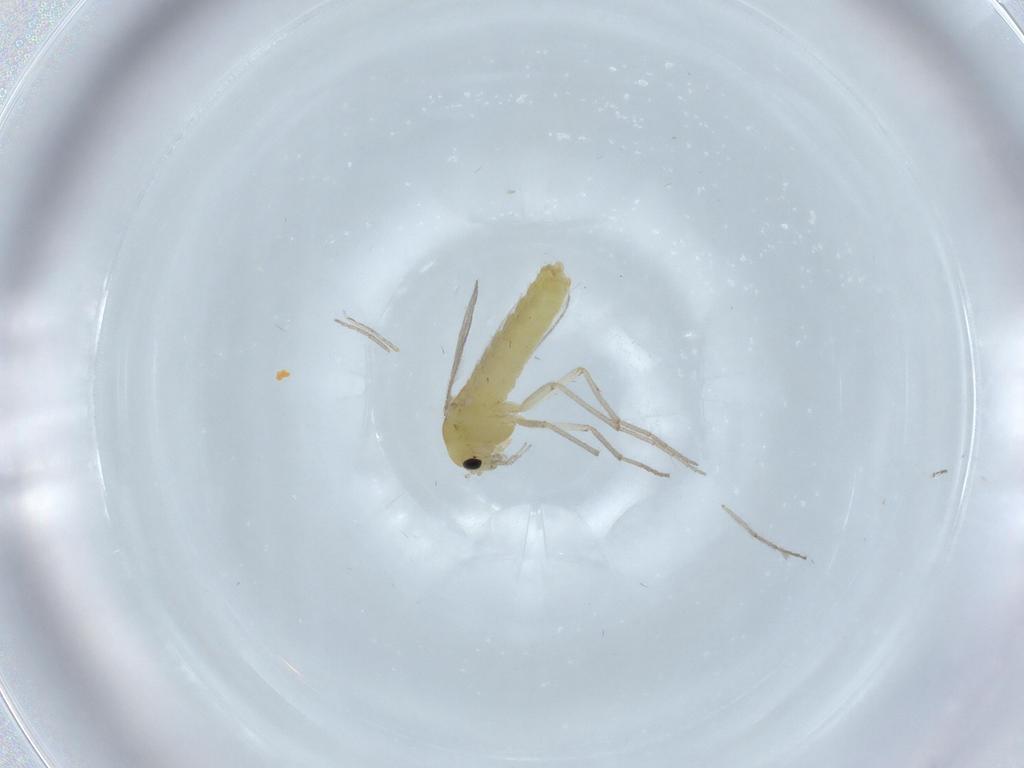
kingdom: Animalia
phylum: Arthropoda
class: Insecta
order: Diptera
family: Chironomidae
